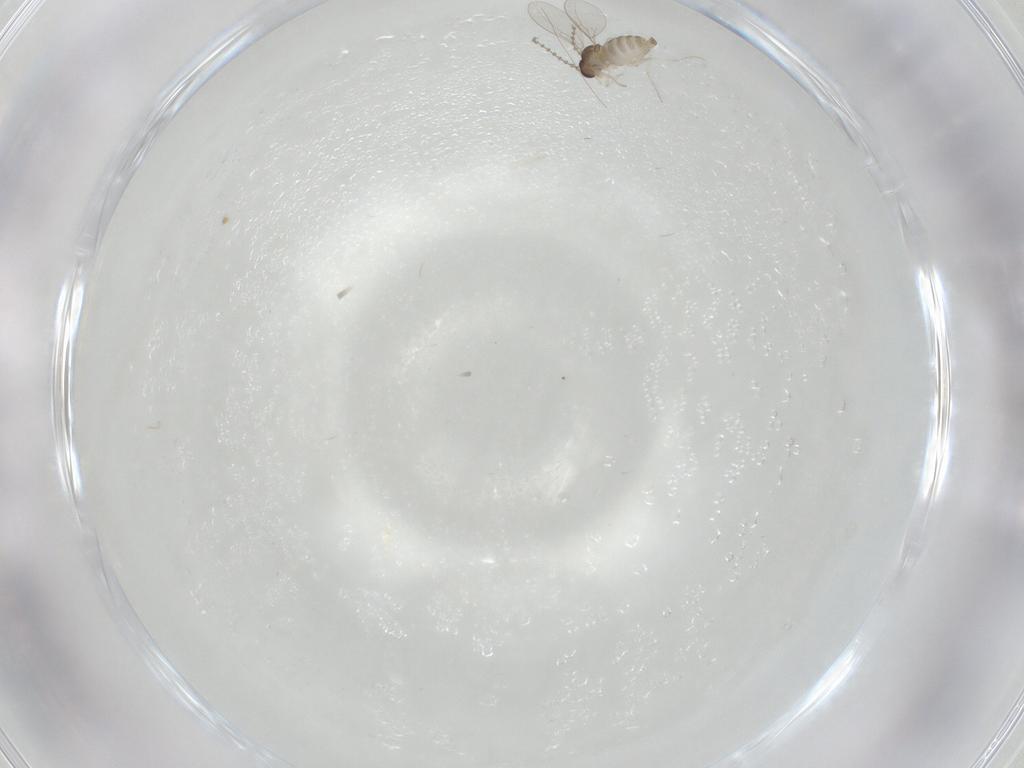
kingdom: Animalia
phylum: Arthropoda
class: Insecta
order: Diptera
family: Cecidomyiidae
